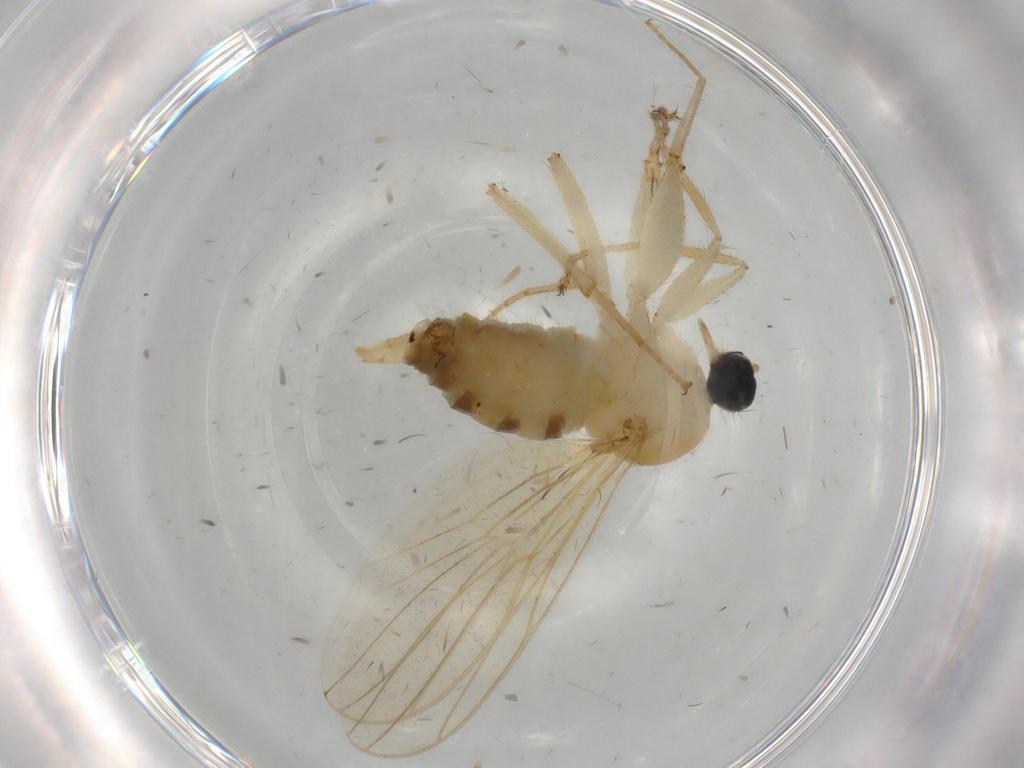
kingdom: Animalia
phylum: Arthropoda
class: Insecta
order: Diptera
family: Hybotidae
